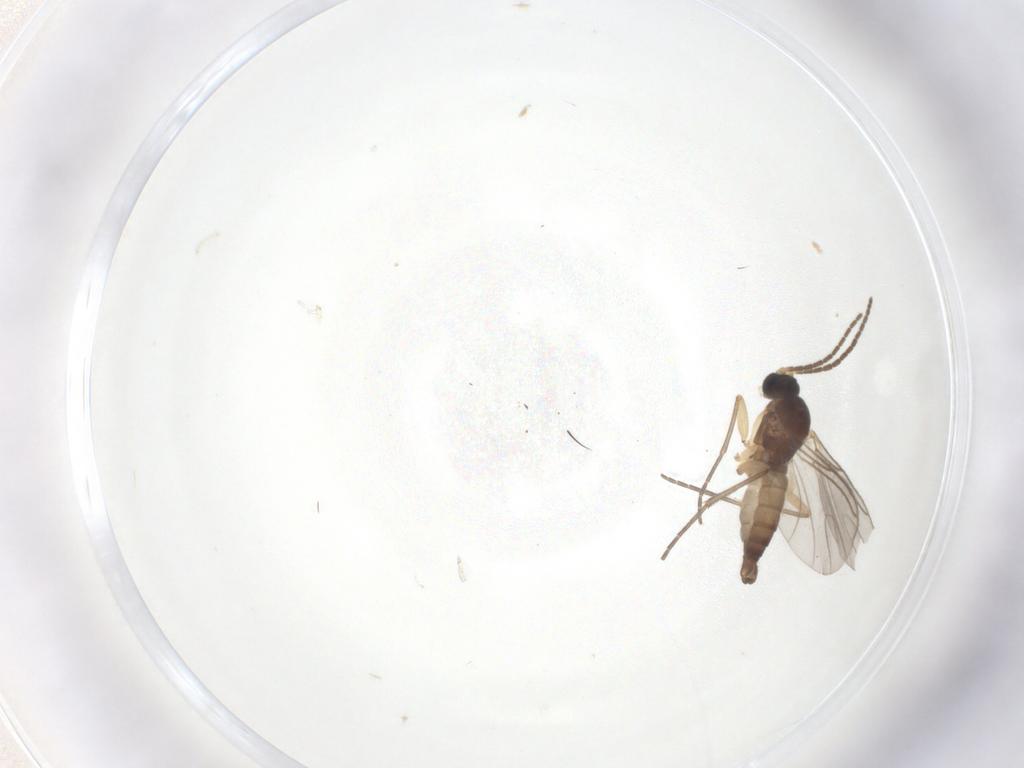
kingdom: Animalia
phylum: Arthropoda
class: Insecta
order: Diptera
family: Sciaridae
